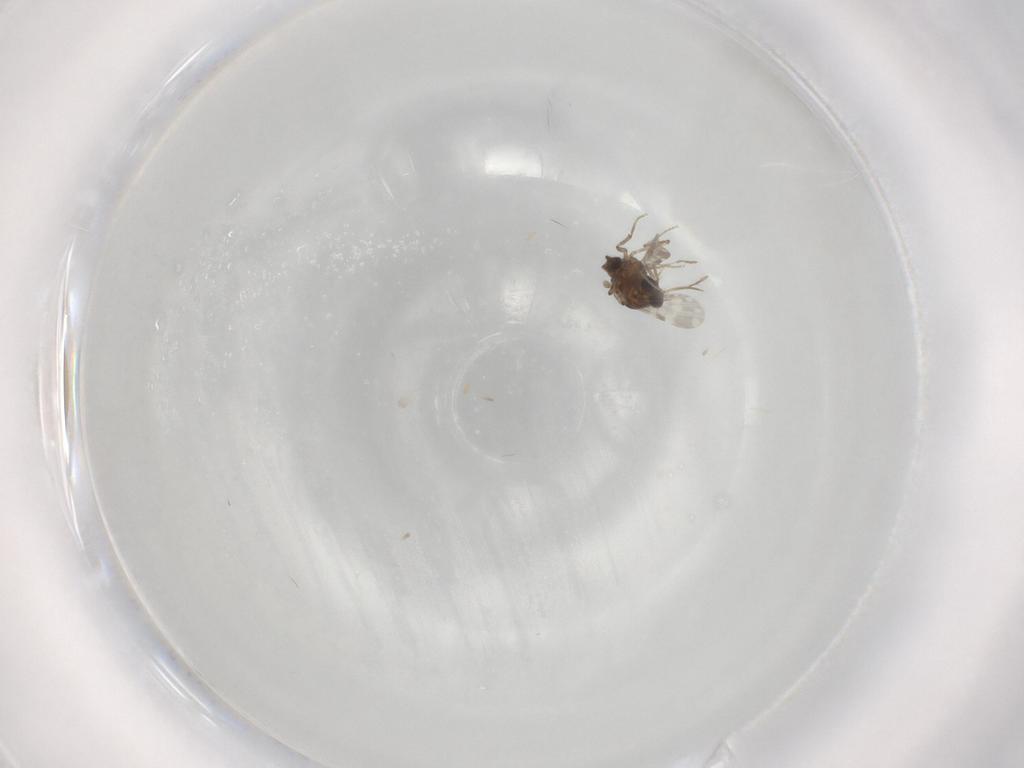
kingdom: Animalia
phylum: Arthropoda
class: Insecta
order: Diptera
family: Ceratopogonidae
